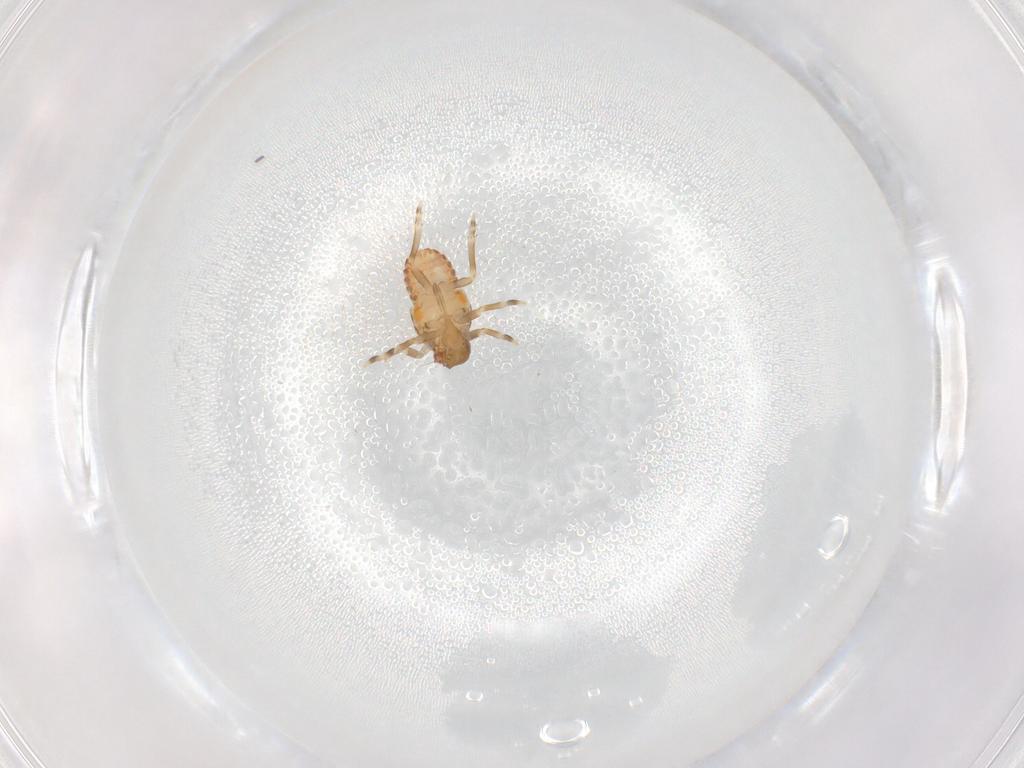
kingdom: Animalia
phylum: Arthropoda
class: Insecta
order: Hemiptera
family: Flatidae
